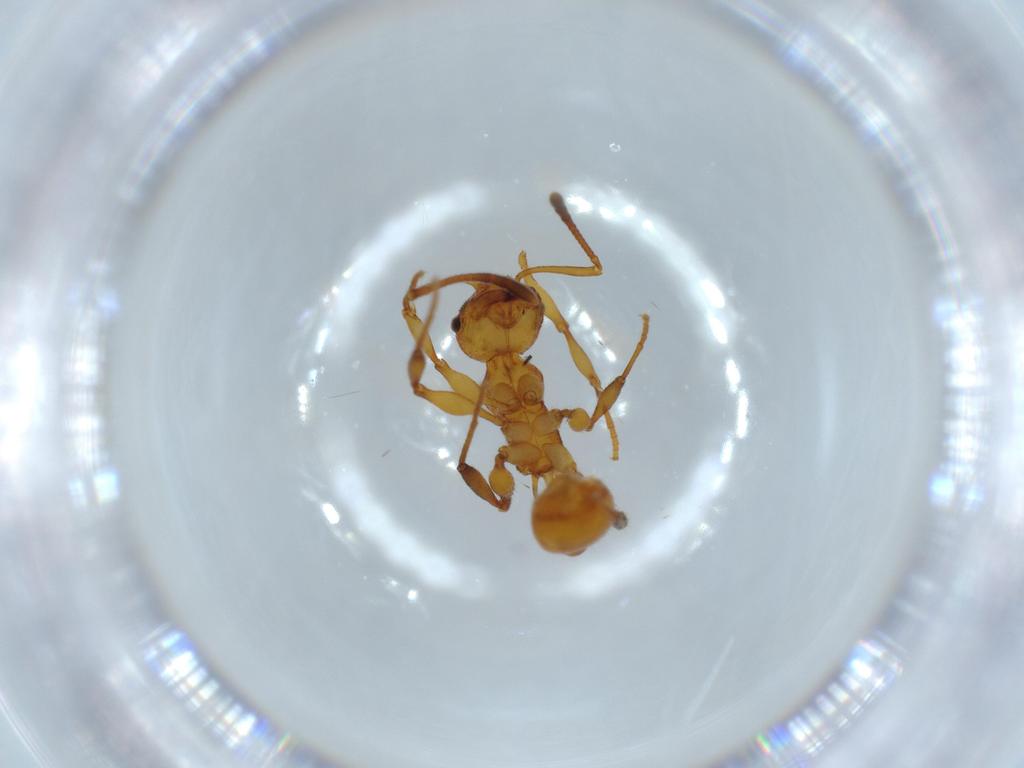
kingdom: Animalia
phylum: Arthropoda
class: Insecta
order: Hymenoptera
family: Formicidae
